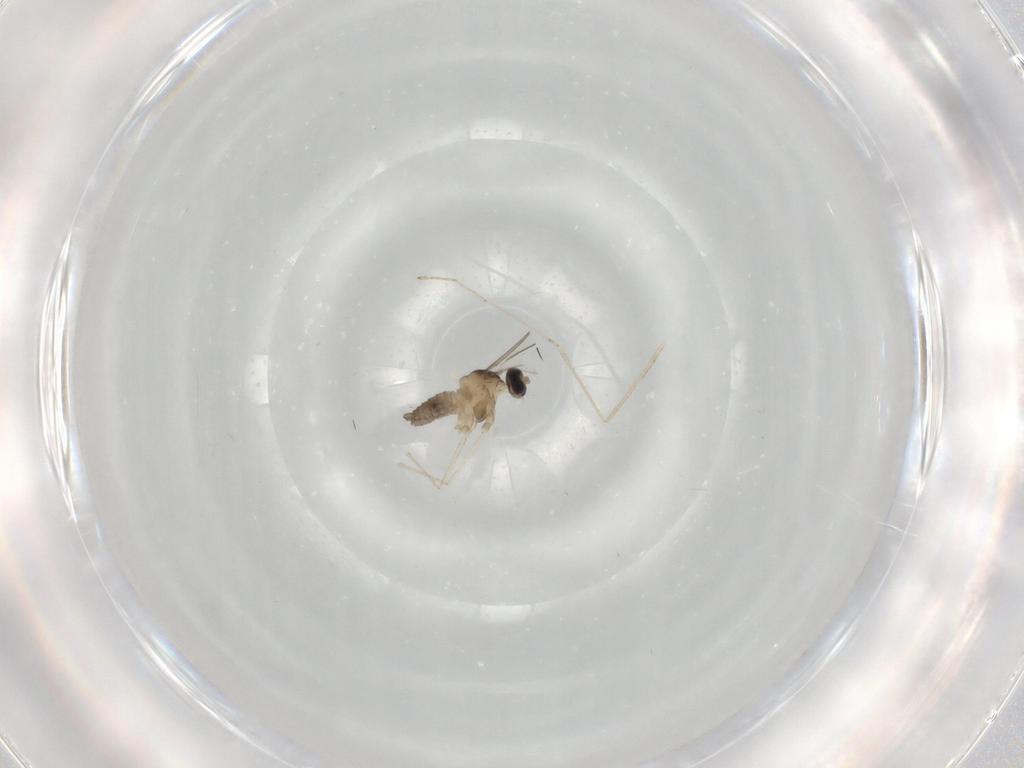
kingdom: Animalia
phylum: Arthropoda
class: Insecta
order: Diptera
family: Cecidomyiidae
